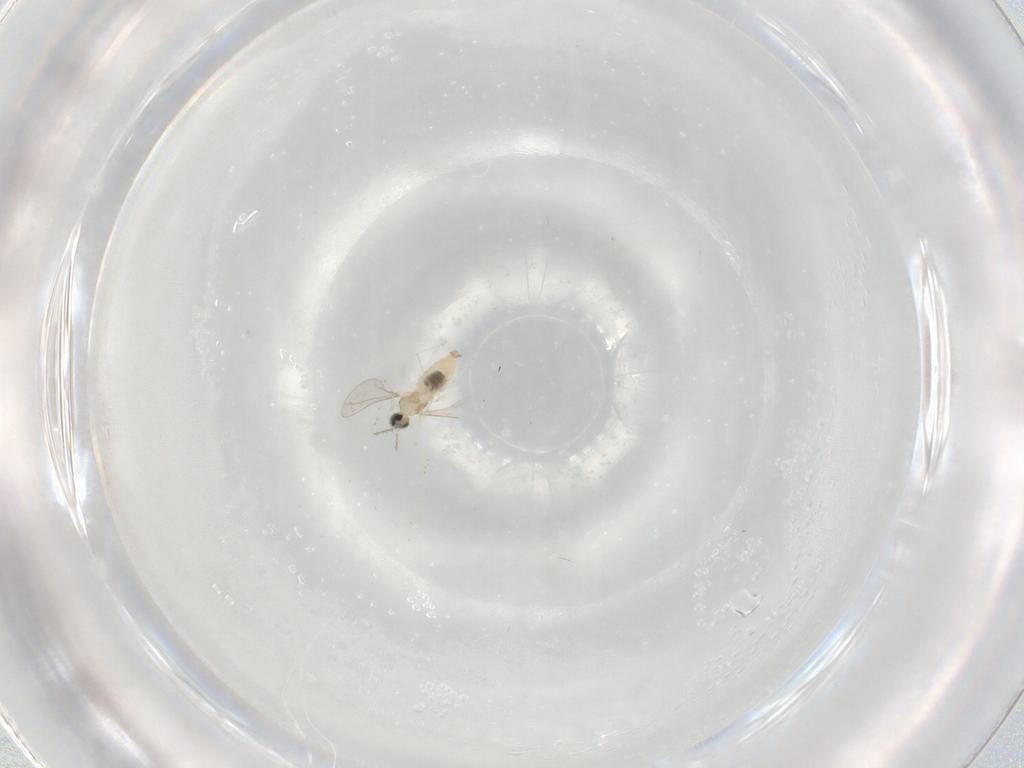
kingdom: Animalia
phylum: Arthropoda
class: Insecta
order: Diptera
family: Cecidomyiidae
